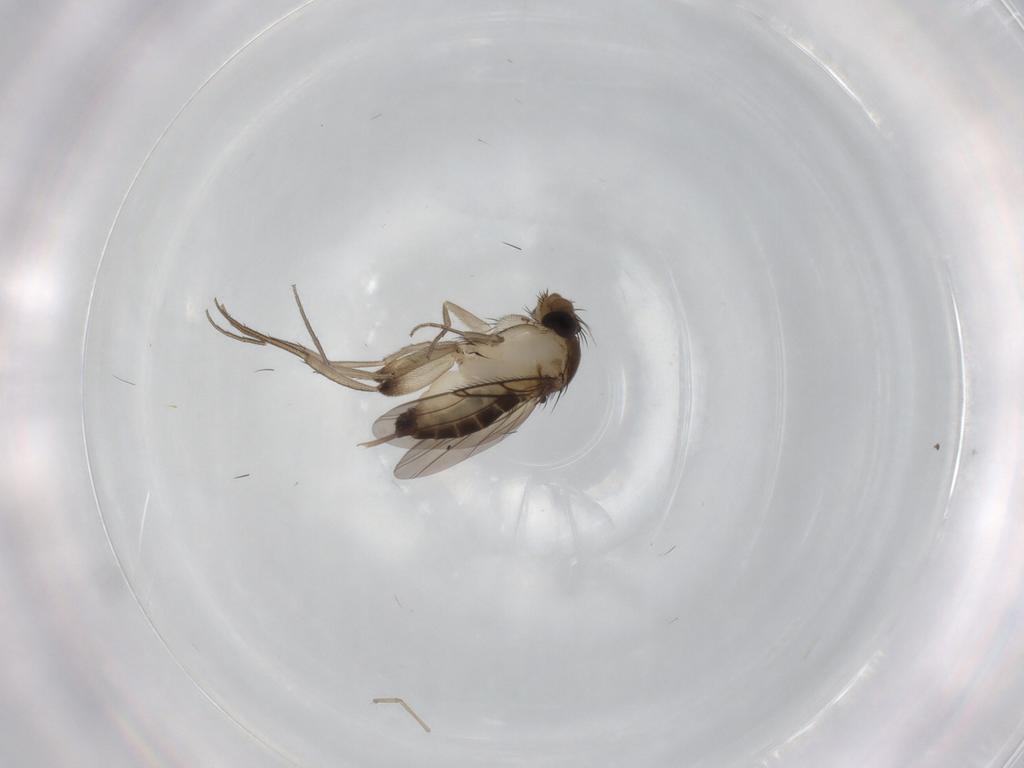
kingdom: Animalia
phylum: Arthropoda
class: Insecta
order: Diptera
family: Phoridae
